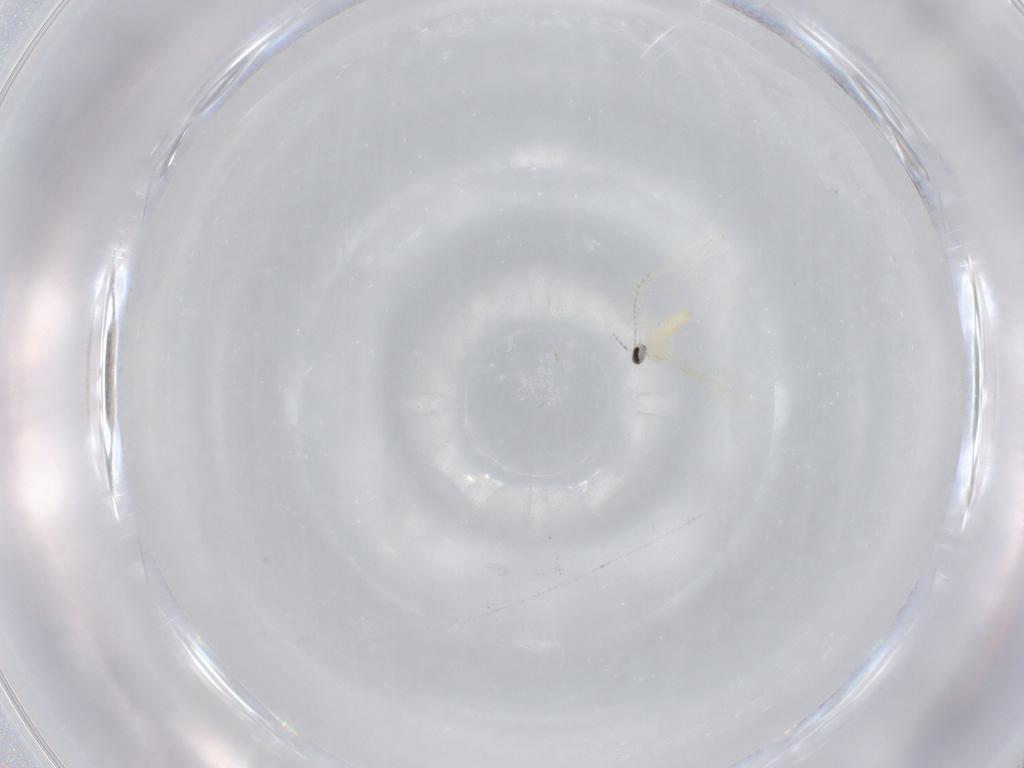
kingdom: Animalia
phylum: Arthropoda
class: Insecta
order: Diptera
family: Cecidomyiidae
